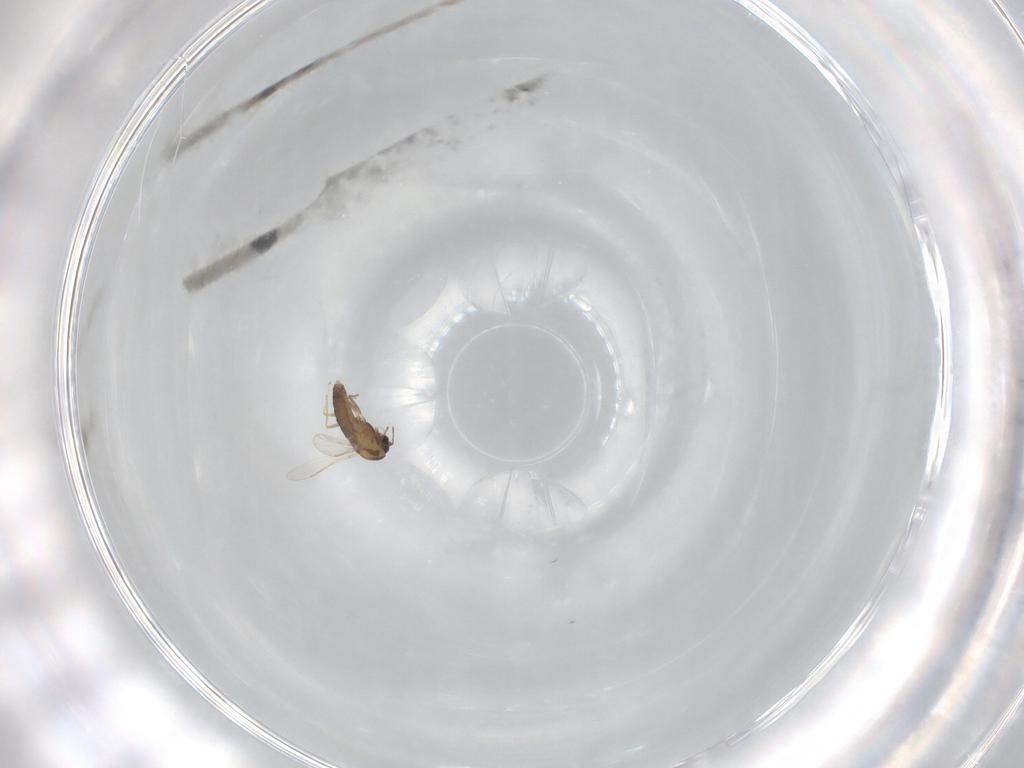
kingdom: Animalia
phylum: Arthropoda
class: Insecta
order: Diptera
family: Chironomidae
